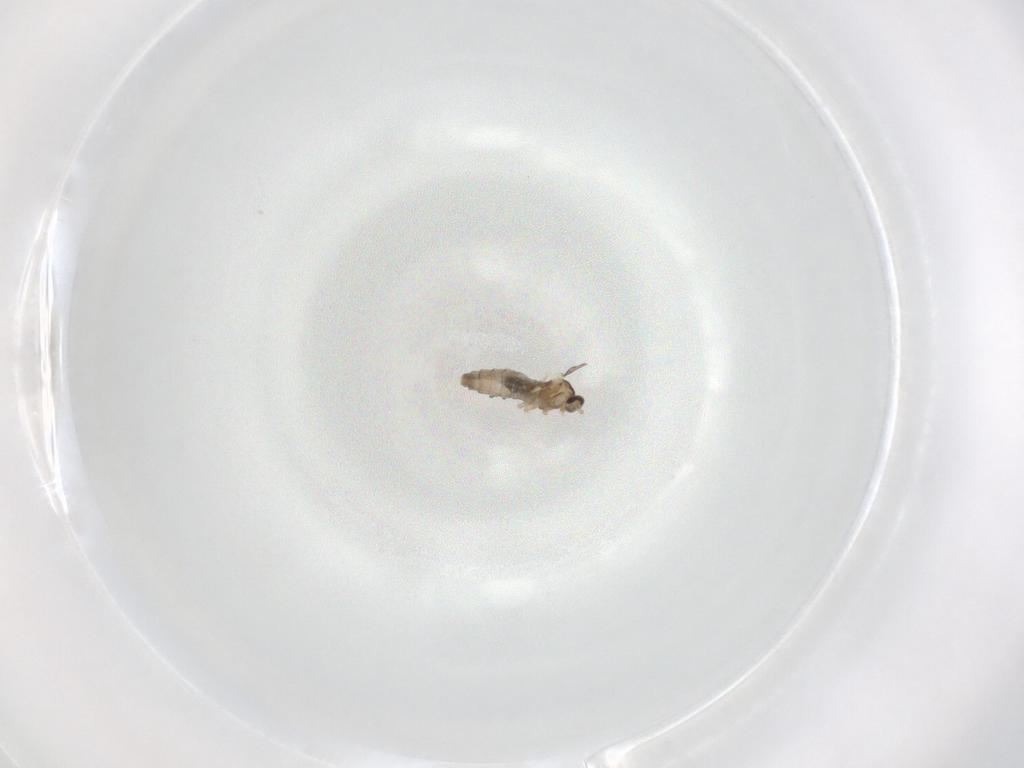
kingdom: Animalia
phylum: Arthropoda
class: Insecta
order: Diptera
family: Cecidomyiidae
